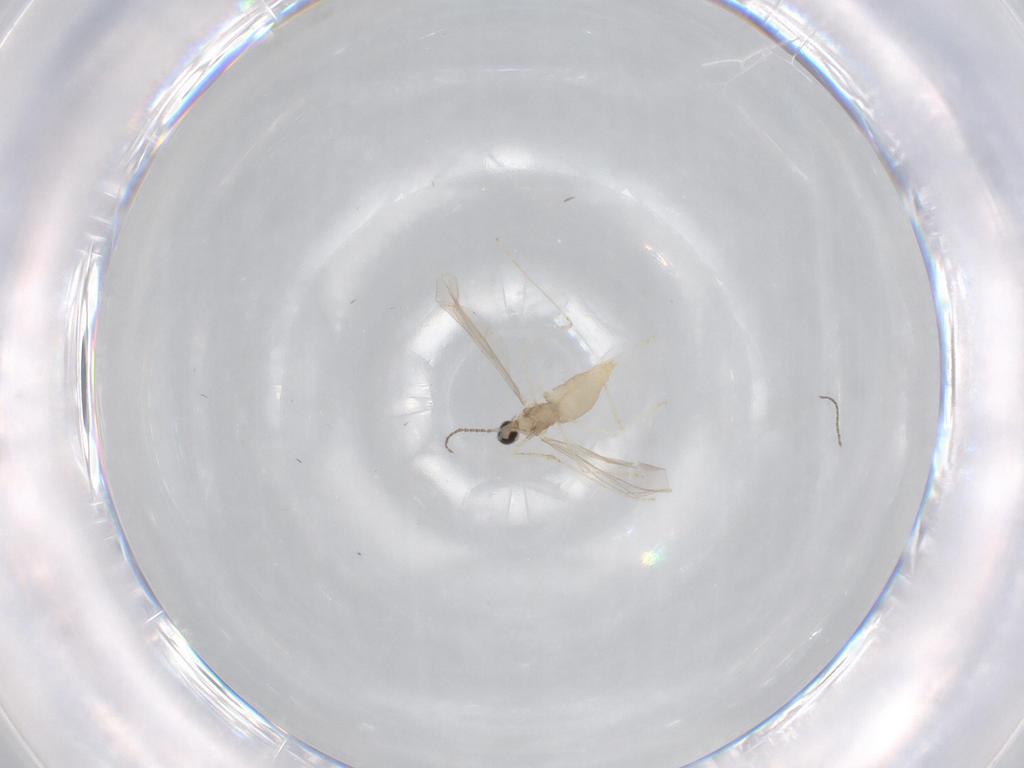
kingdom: Animalia
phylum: Arthropoda
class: Insecta
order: Diptera
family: Cecidomyiidae
